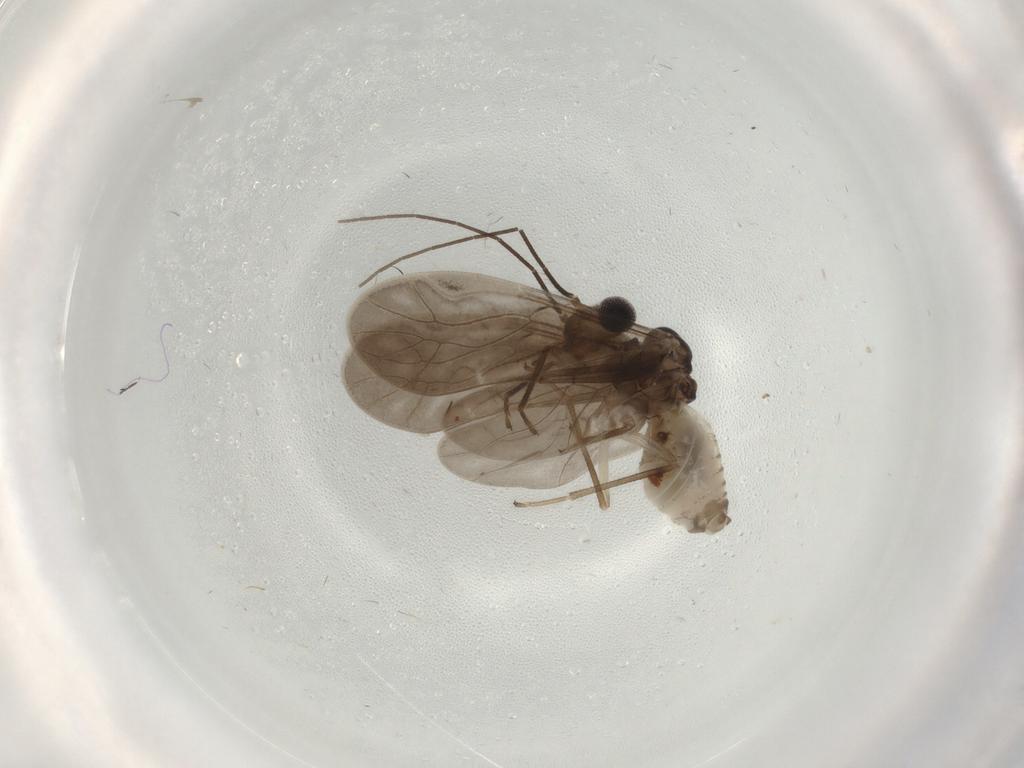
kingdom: Animalia
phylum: Arthropoda
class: Insecta
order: Psocodea
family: Caeciliusidae
